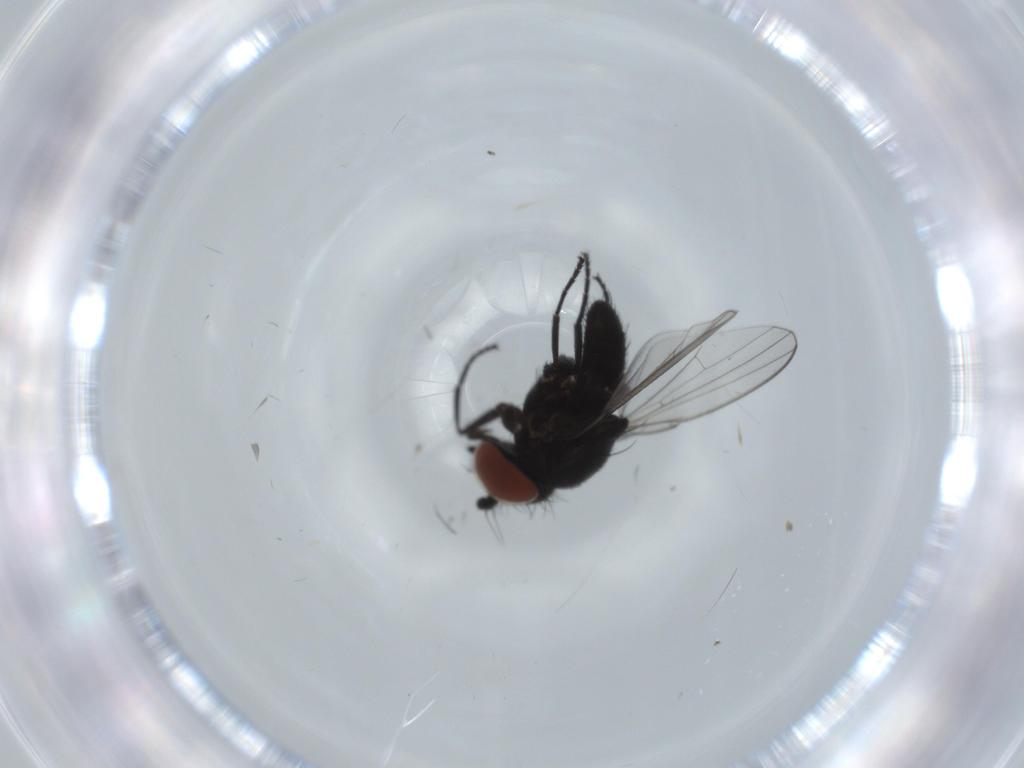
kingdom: Animalia
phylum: Arthropoda
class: Insecta
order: Diptera
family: Milichiidae
